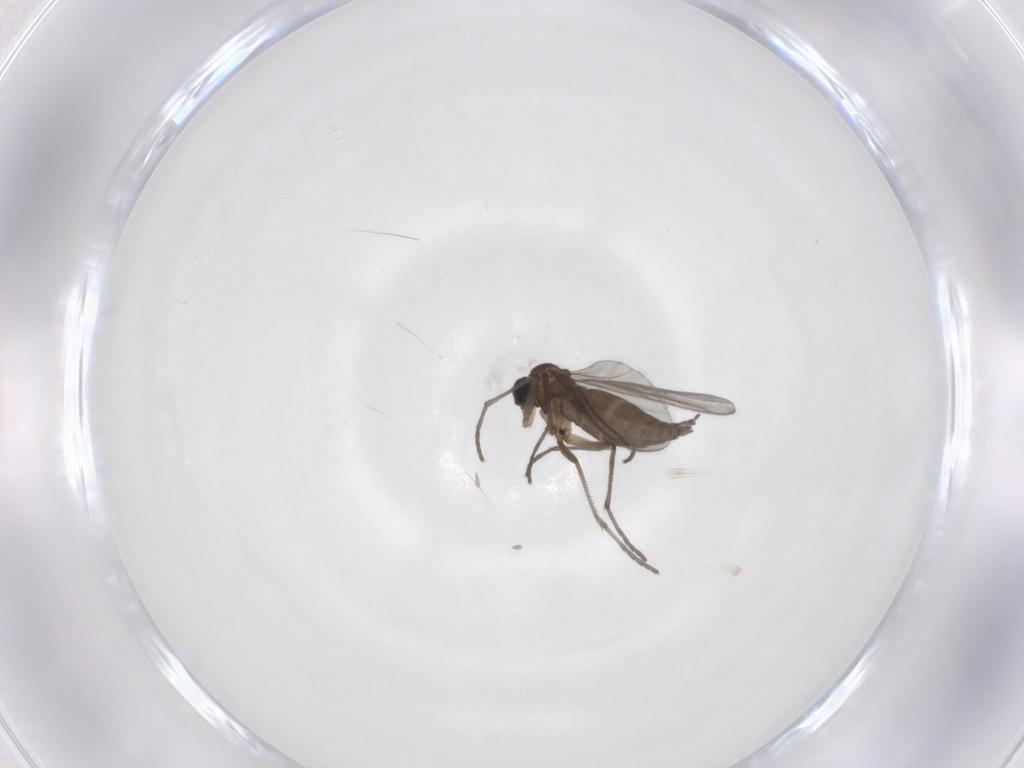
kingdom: Animalia
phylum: Arthropoda
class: Insecta
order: Diptera
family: Sciaridae
